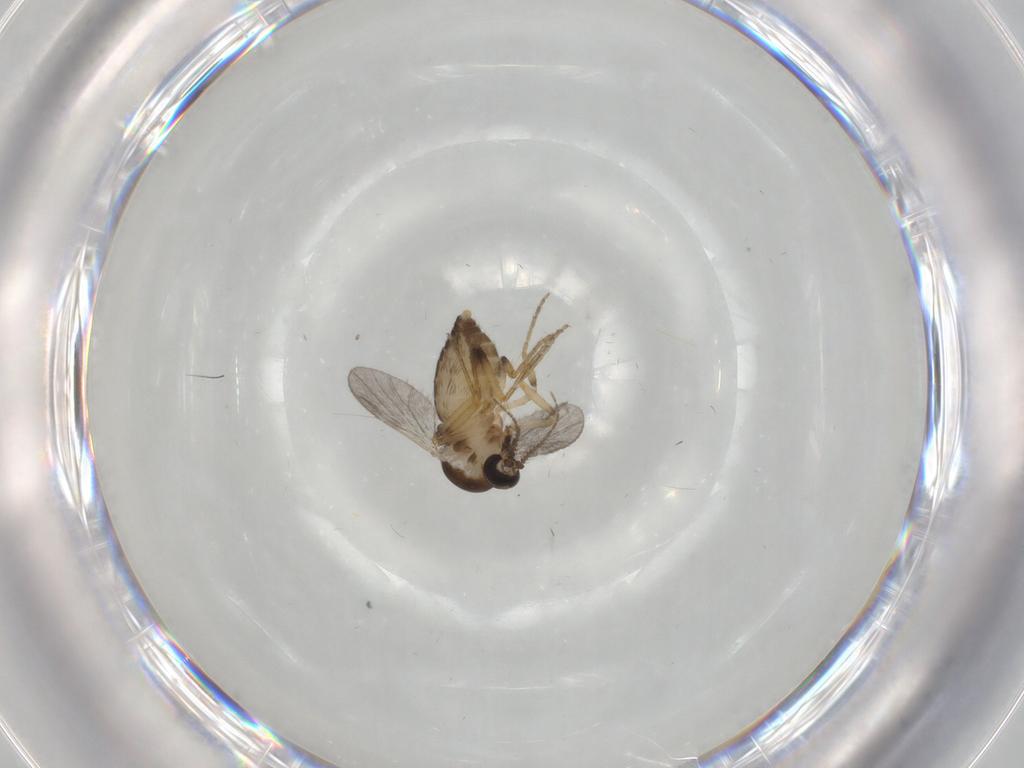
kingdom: Animalia
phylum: Arthropoda
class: Insecta
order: Diptera
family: Ceratopogonidae
